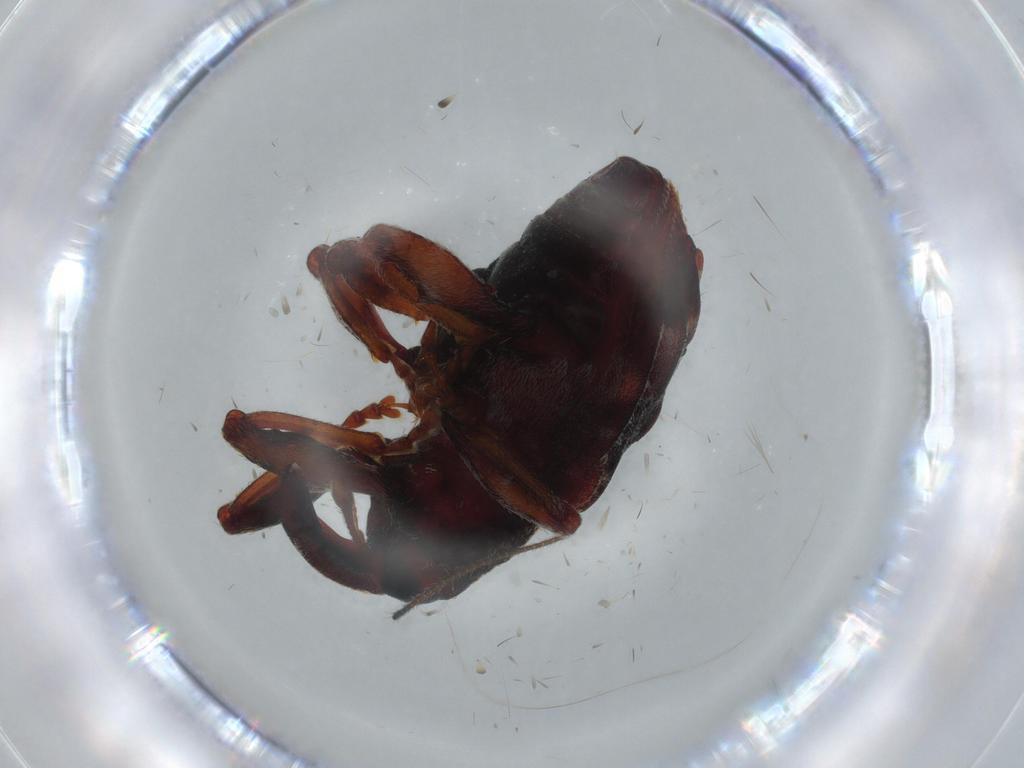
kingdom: Animalia
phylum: Arthropoda
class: Insecta
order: Coleoptera
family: Curculionidae
